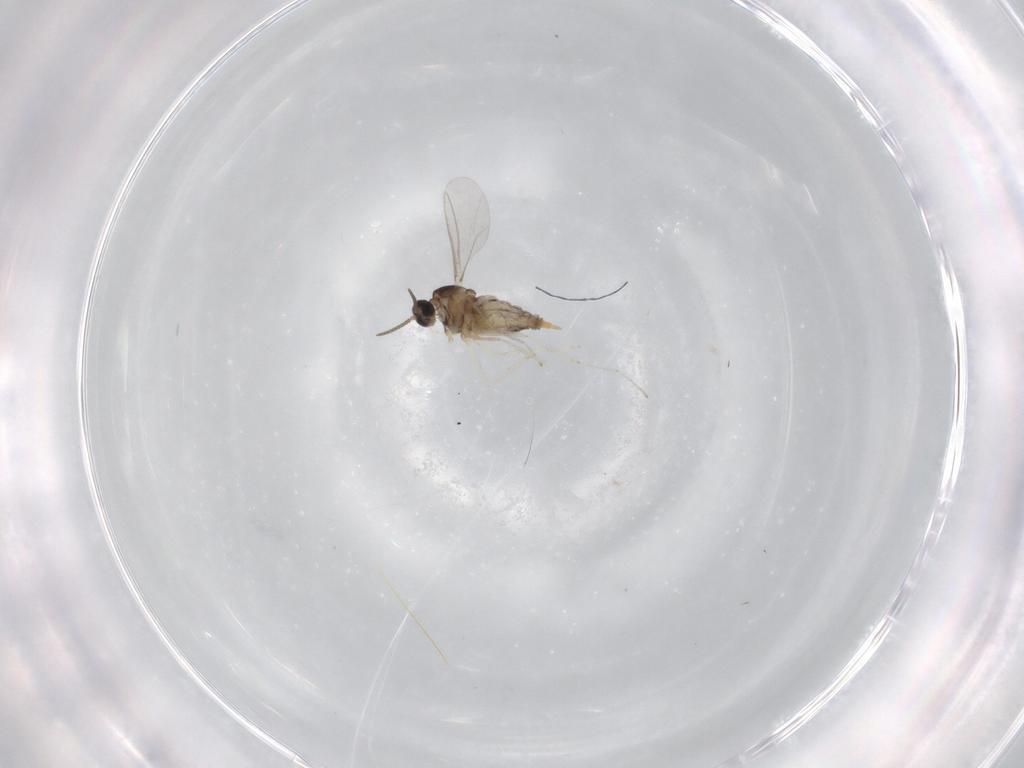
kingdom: Animalia
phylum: Arthropoda
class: Insecta
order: Diptera
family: Cecidomyiidae
